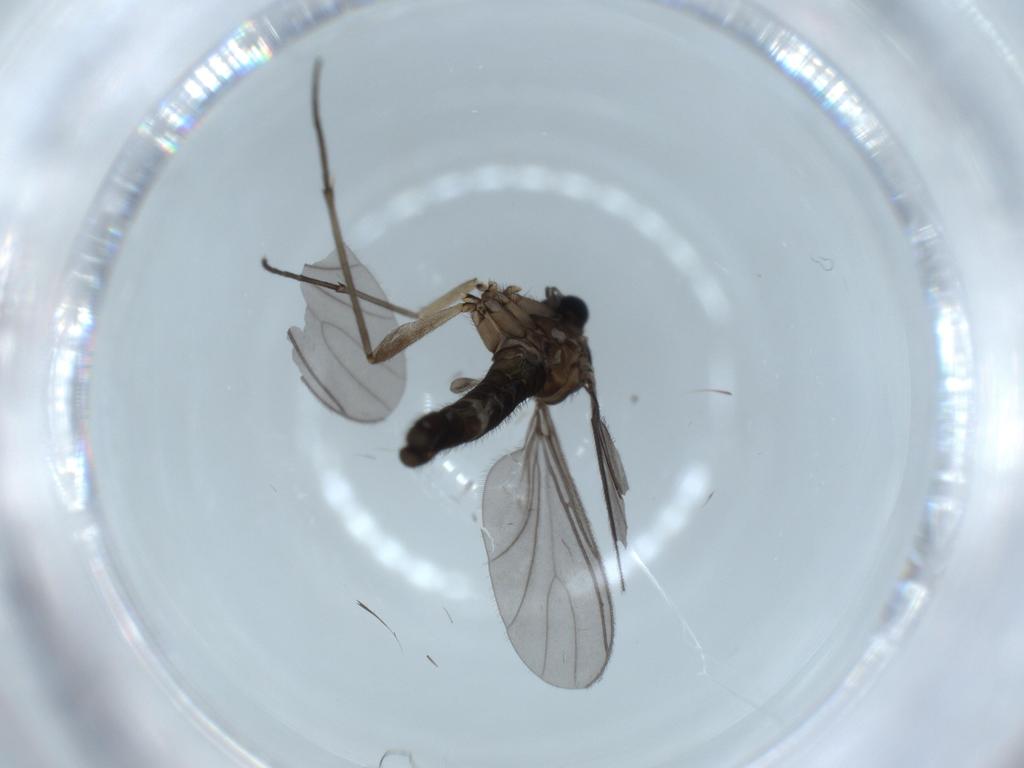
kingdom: Animalia
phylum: Arthropoda
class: Insecta
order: Diptera
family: Sciaridae
